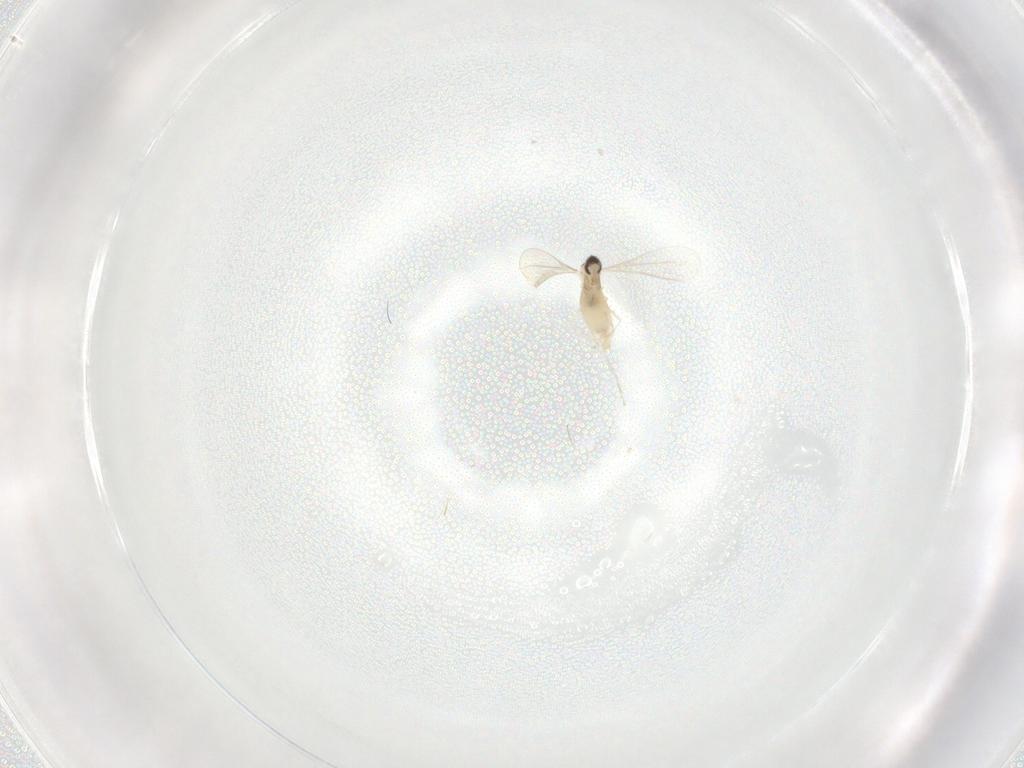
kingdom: Animalia
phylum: Arthropoda
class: Insecta
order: Diptera
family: Cecidomyiidae
